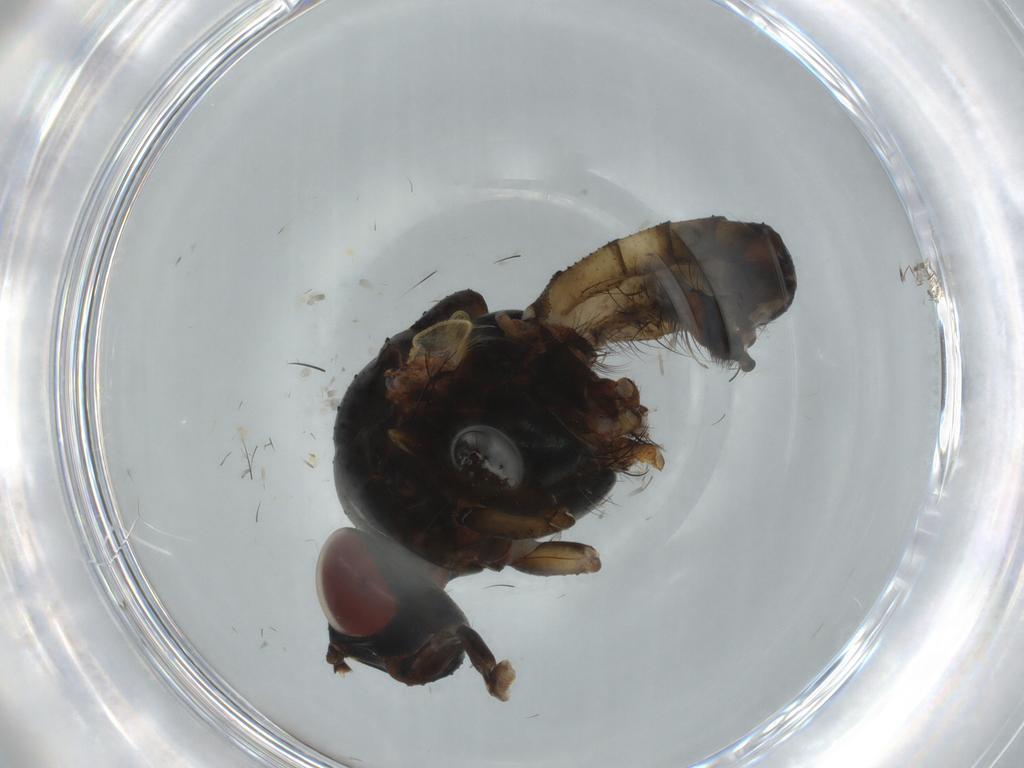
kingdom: Animalia
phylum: Arthropoda
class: Insecta
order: Diptera
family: Anthomyiidae
